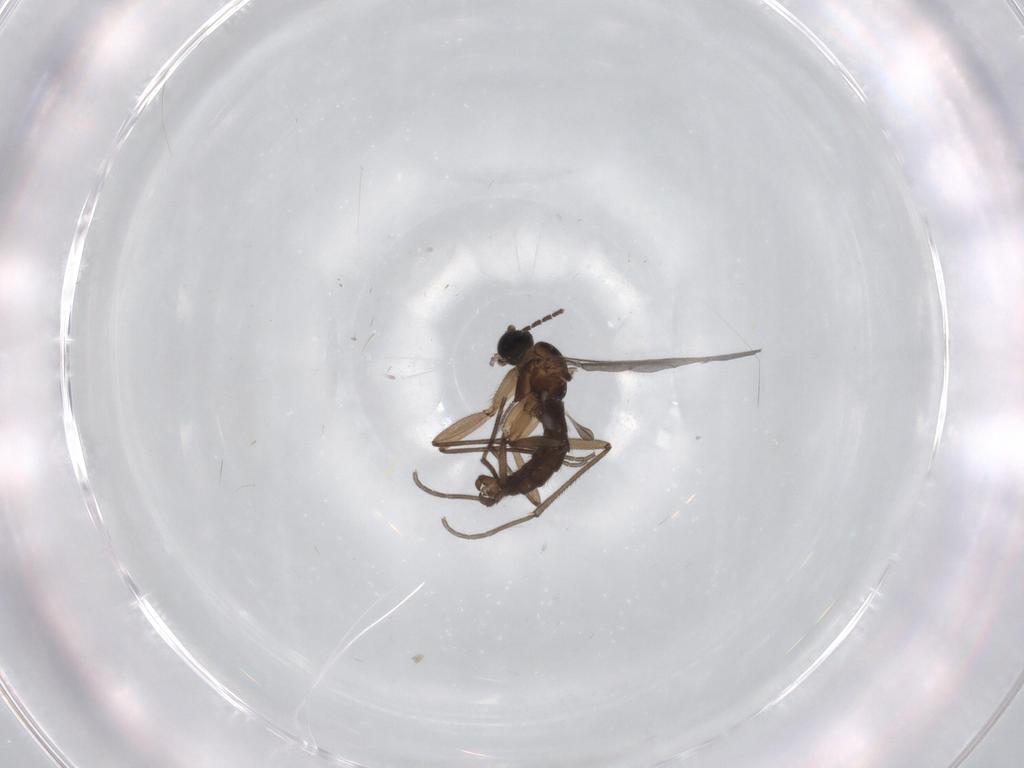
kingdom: Animalia
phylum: Arthropoda
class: Insecta
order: Diptera
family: Sciaridae
